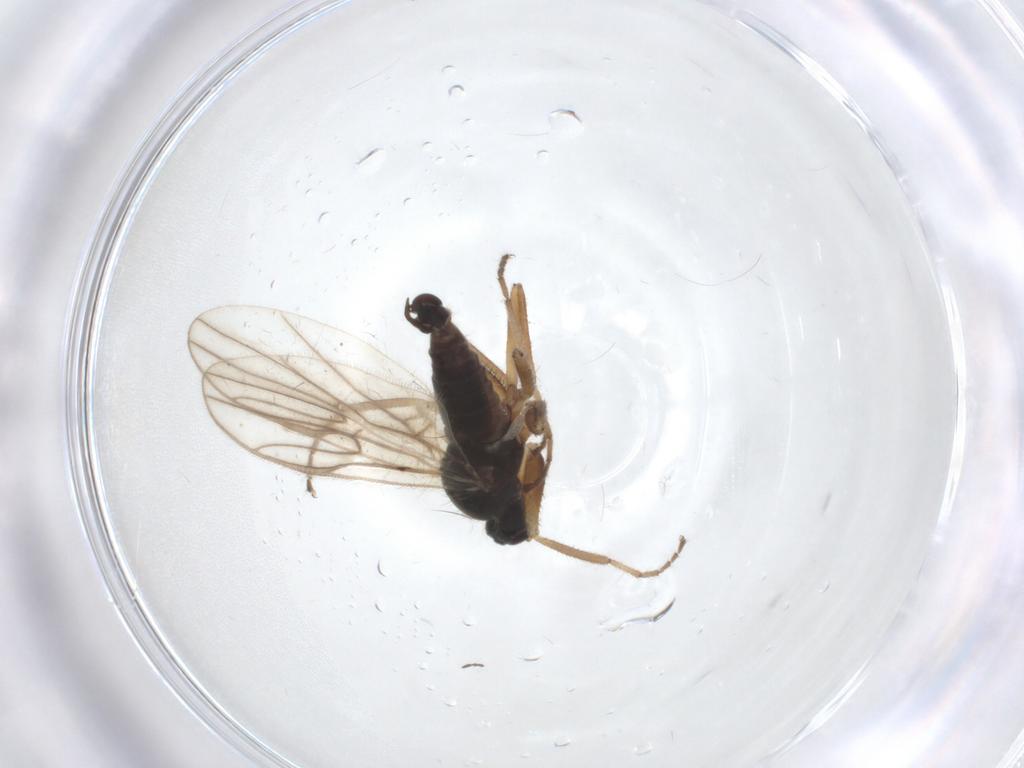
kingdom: Animalia
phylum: Arthropoda
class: Insecta
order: Diptera
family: Hybotidae
